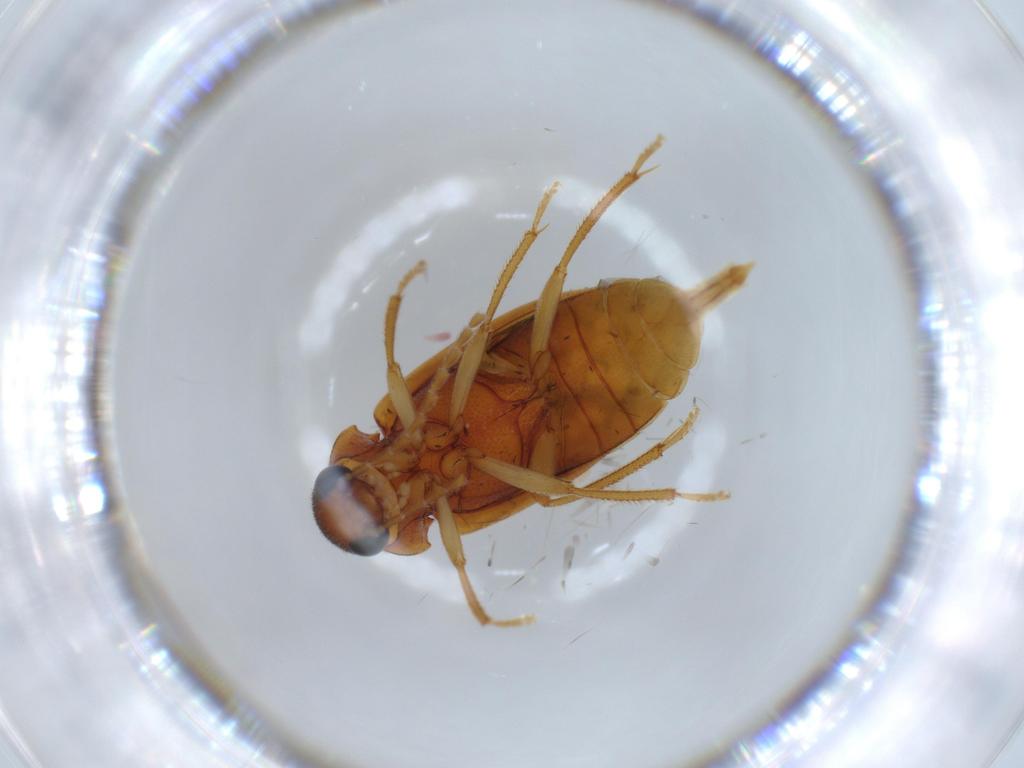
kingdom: Animalia
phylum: Arthropoda
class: Insecta
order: Coleoptera
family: Ptilodactylidae
